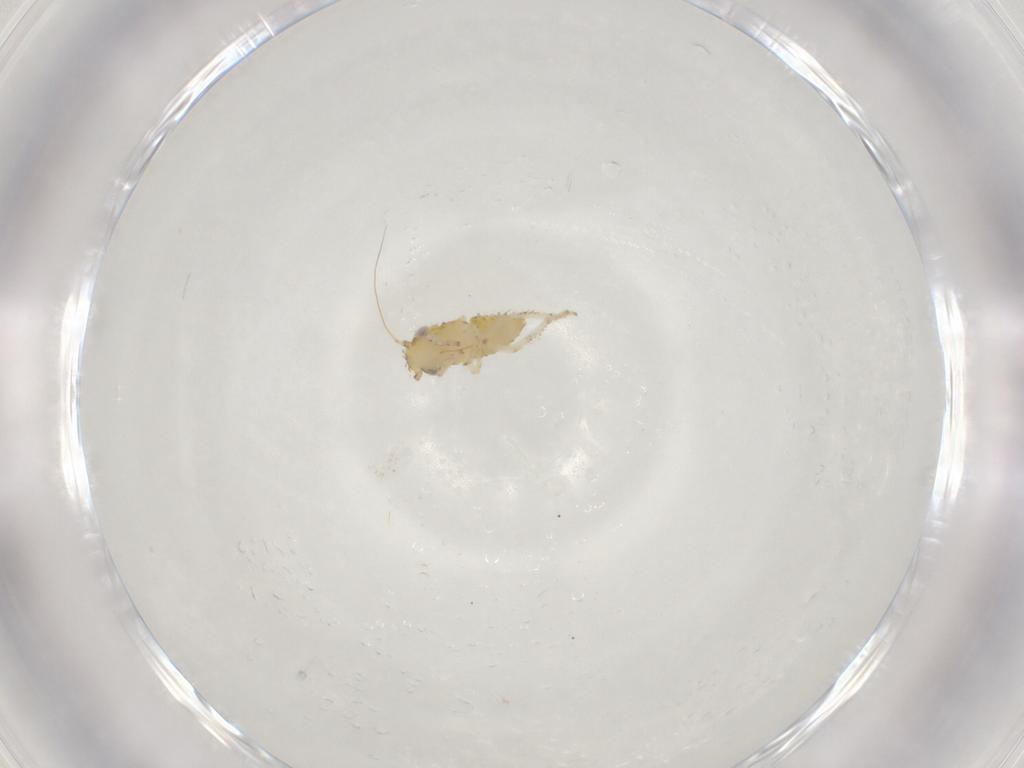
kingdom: Animalia
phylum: Arthropoda
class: Insecta
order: Hemiptera
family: Cicadellidae
